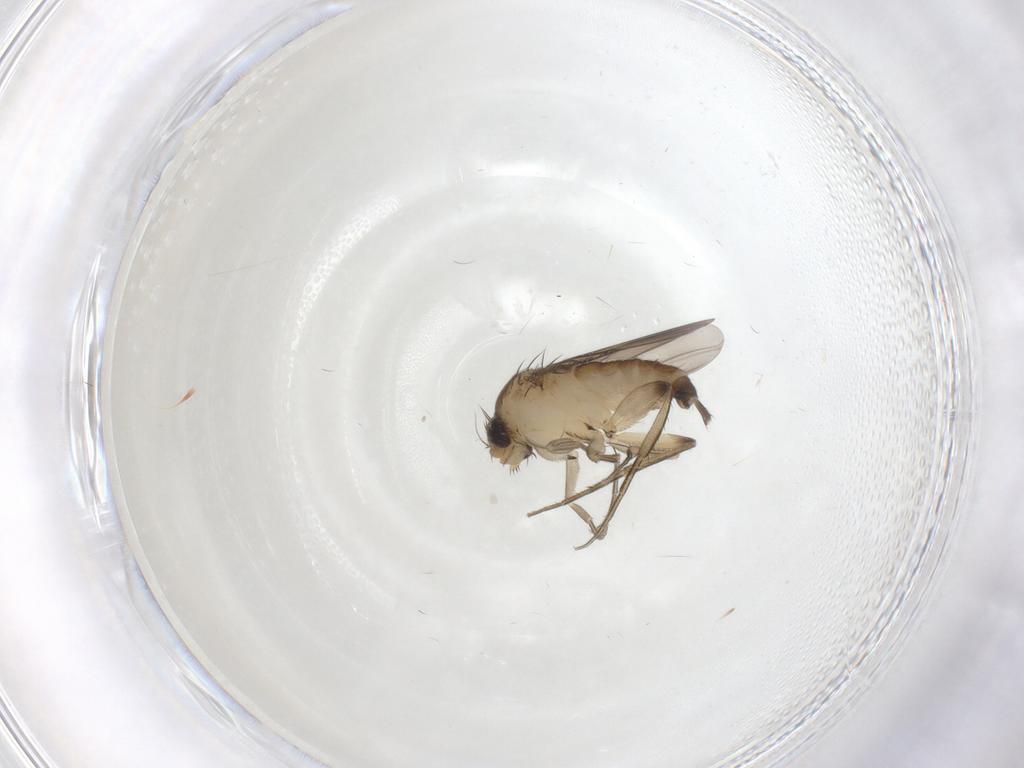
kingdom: Animalia
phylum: Arthropoda
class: Insecta
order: Diptera
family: Phoridae
